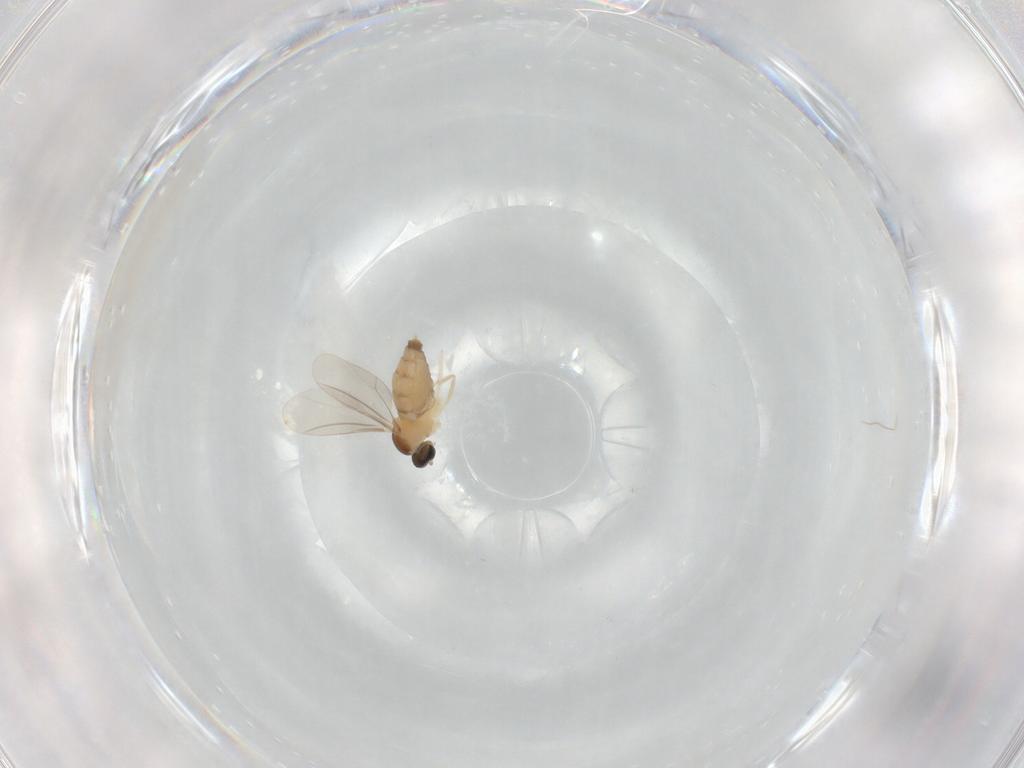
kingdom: Animalia
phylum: Arthropoda
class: Insecta
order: Diptera
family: Cecidomyiidae
